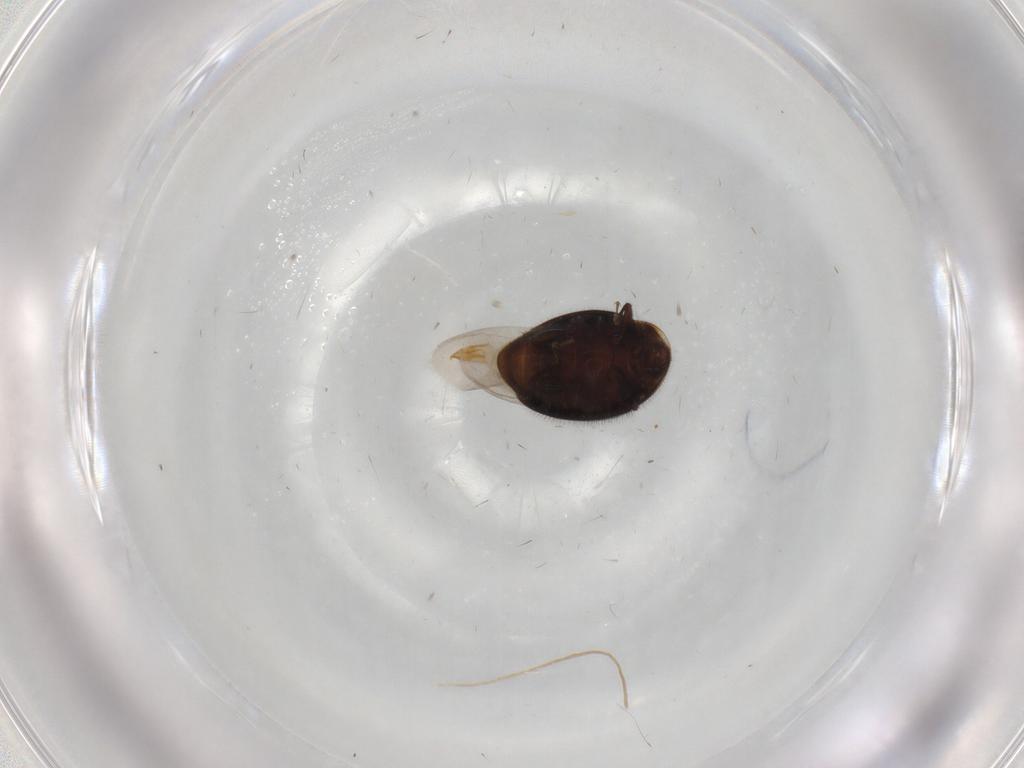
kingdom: Animalia
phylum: Arthropoda
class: Insecta
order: Coleoptera
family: Corylophidae
